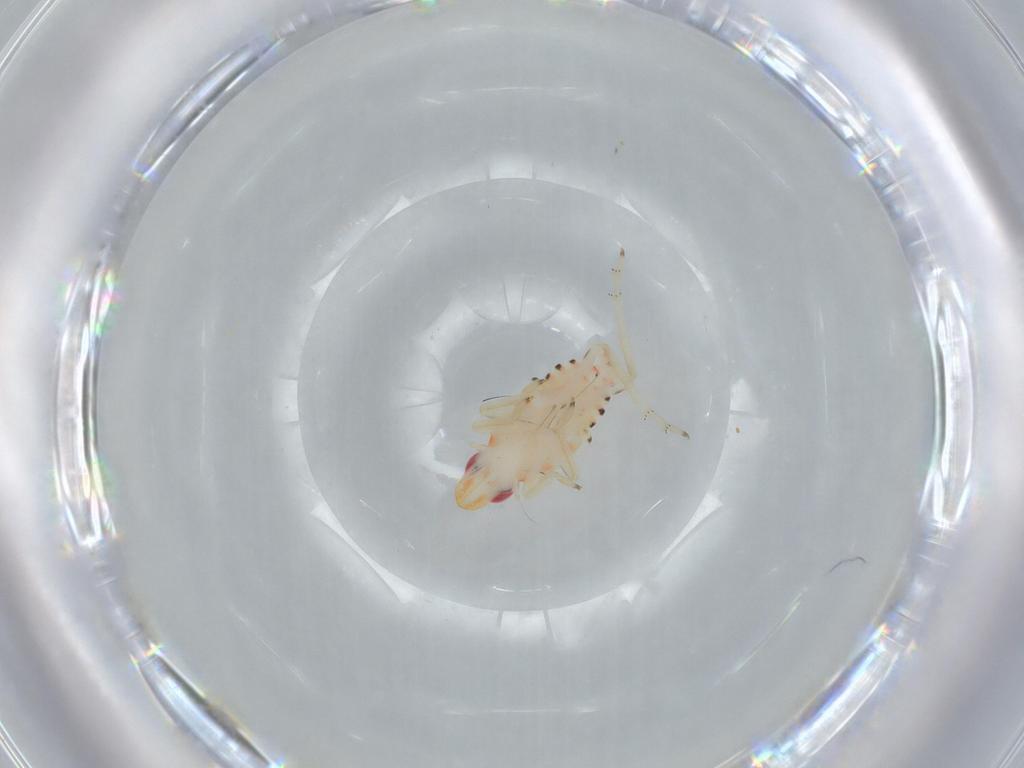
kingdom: Animalia
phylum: Arthropoda
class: Insecta
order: Hemiptera
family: Tropiduchidae
